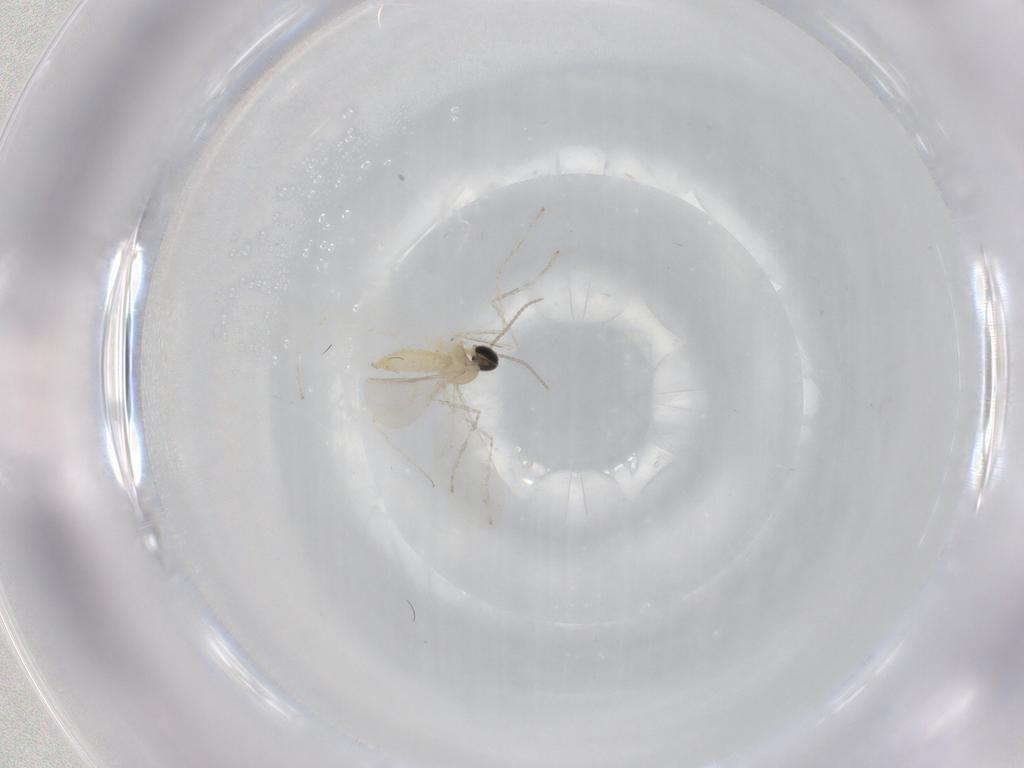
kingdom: Animalia
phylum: Arthropoda
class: Insecta
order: Diptera
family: Cecidomyiidae
